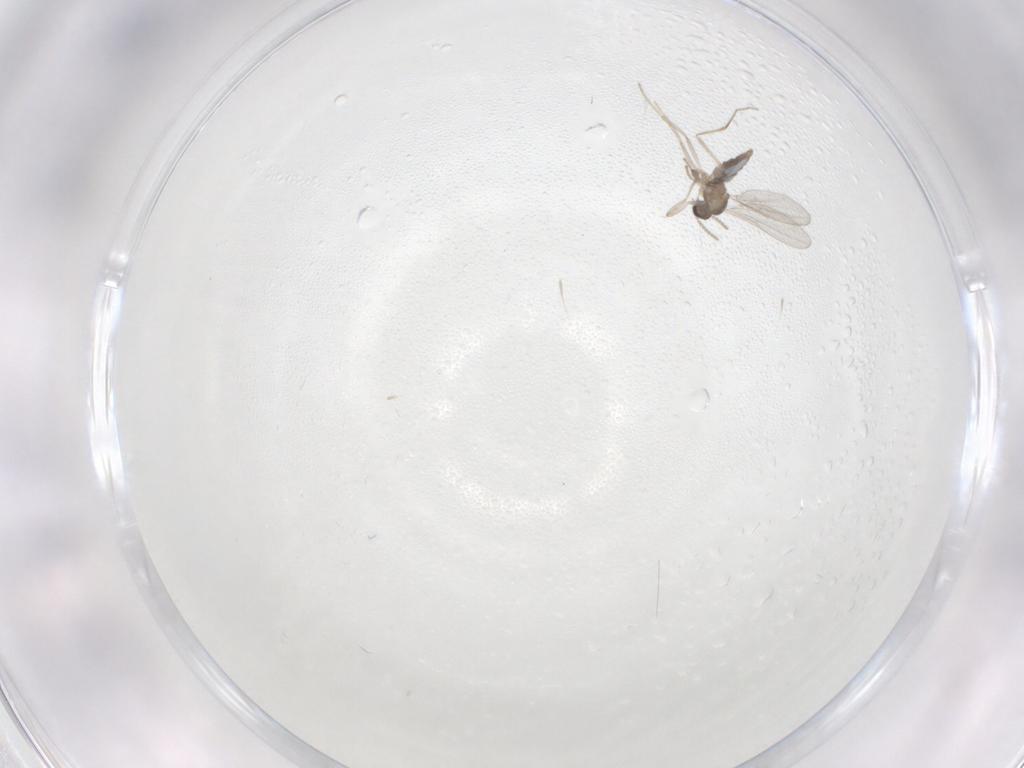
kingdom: Animalia
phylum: Arthropoda
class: Insecta
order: Diptera
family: Cecidomyiidae
